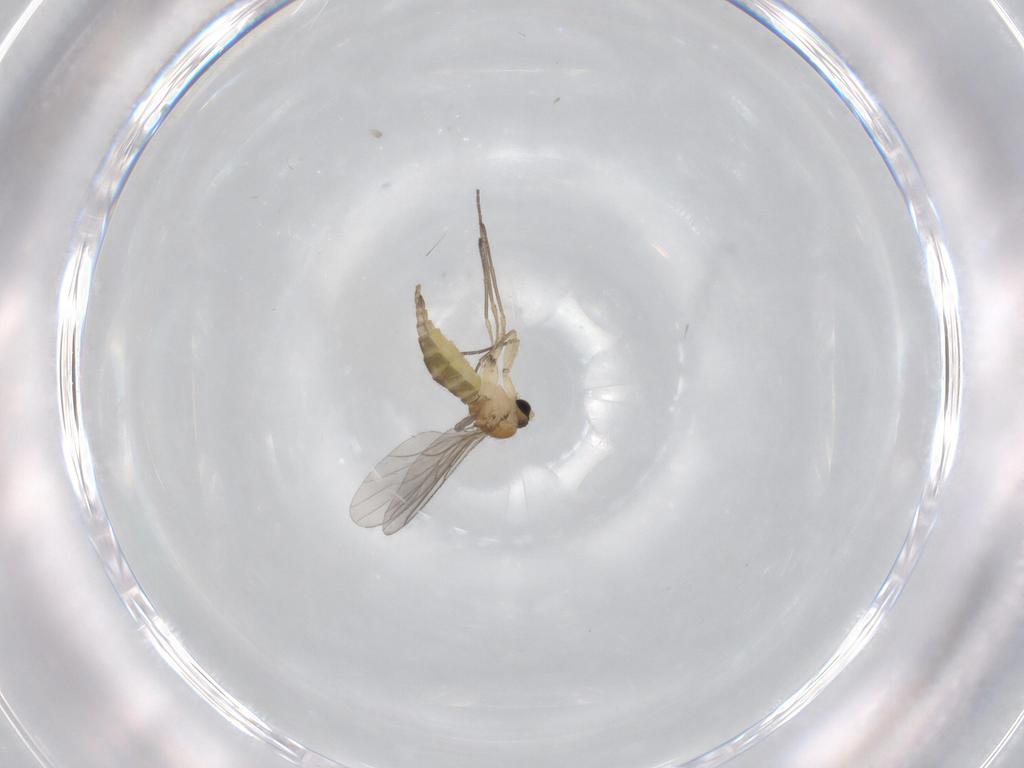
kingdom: Animalia
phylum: Arthropoda
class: Insecta
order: Diptera
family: Sciaridae
